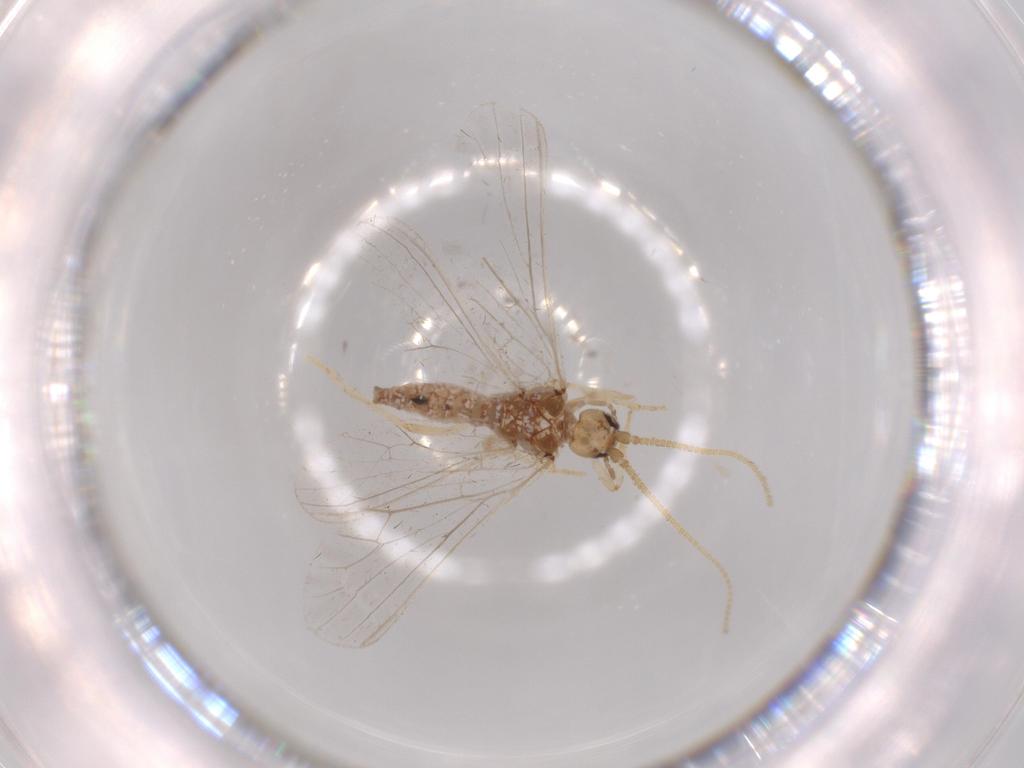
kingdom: Animalia
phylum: Arthropoda
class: Insecta
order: Neuroptera
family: Coniopterygidae
